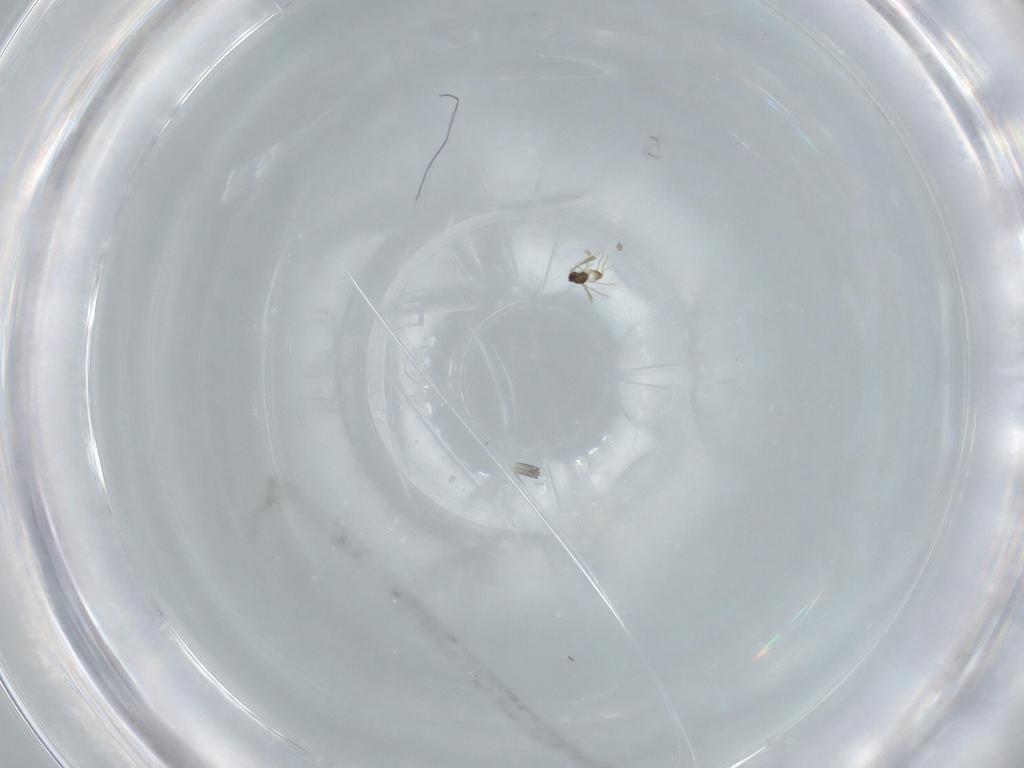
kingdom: Animalia
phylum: Arthropoda
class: Insecta
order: Hymenoptera
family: Mymaridae
